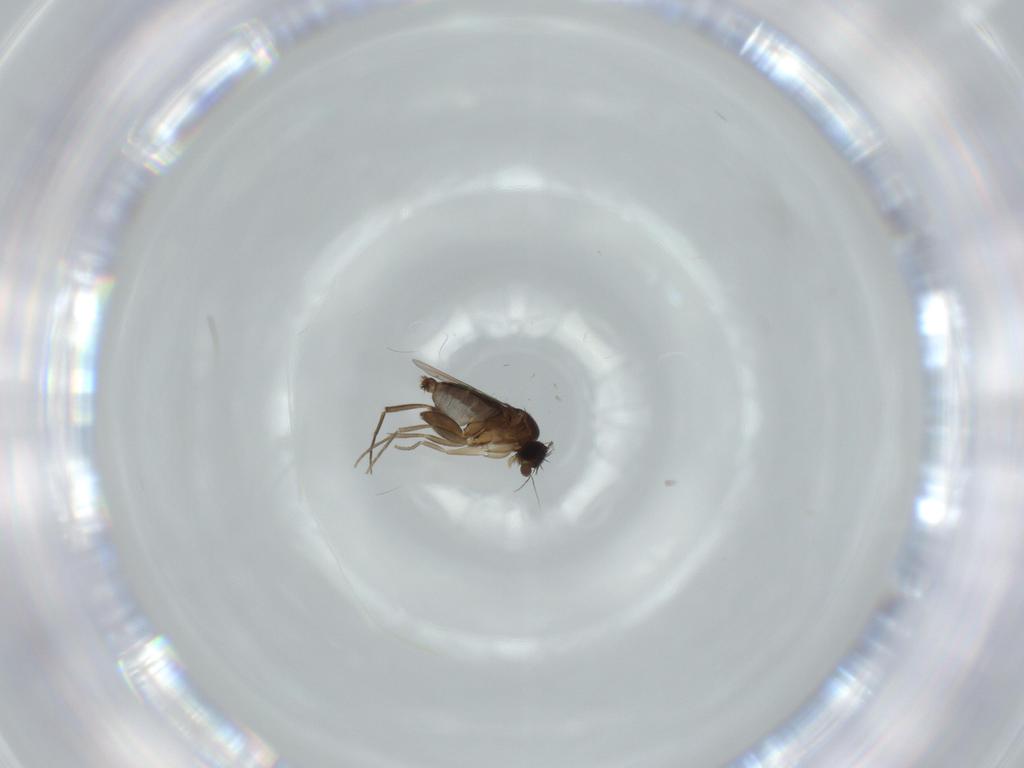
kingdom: Animalia
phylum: Arthropoda
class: Insecta
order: Diptera
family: Phoridae
